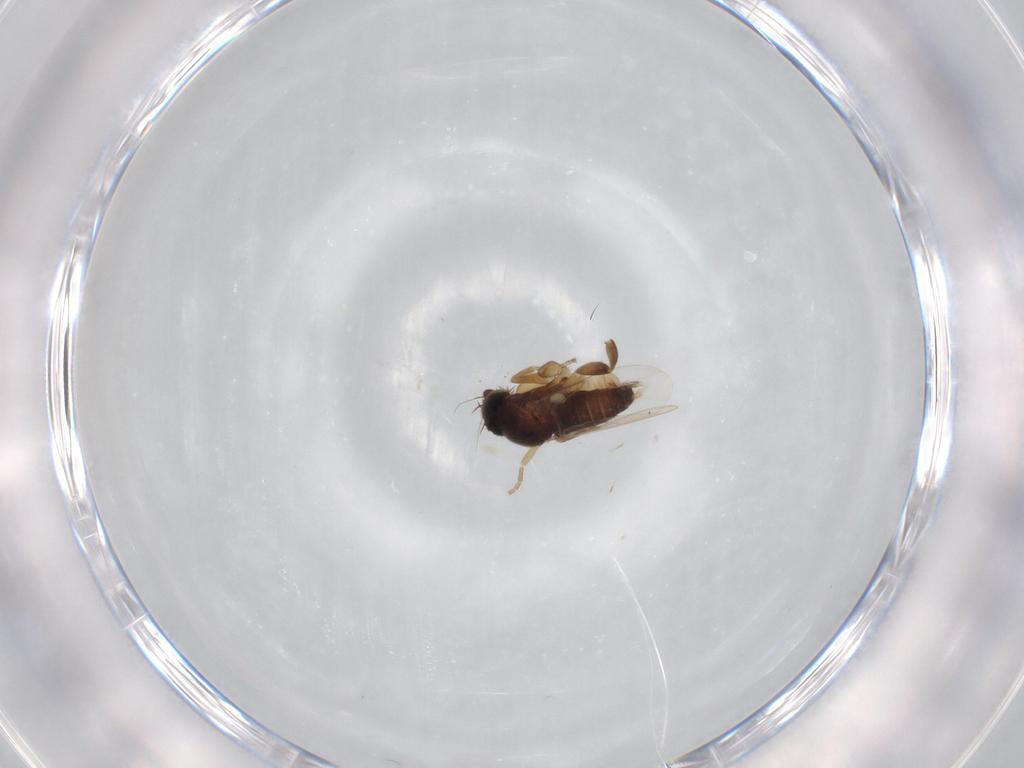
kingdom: Animalia
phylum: Arthropoda
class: Insecta
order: Diptera
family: Phoridae
